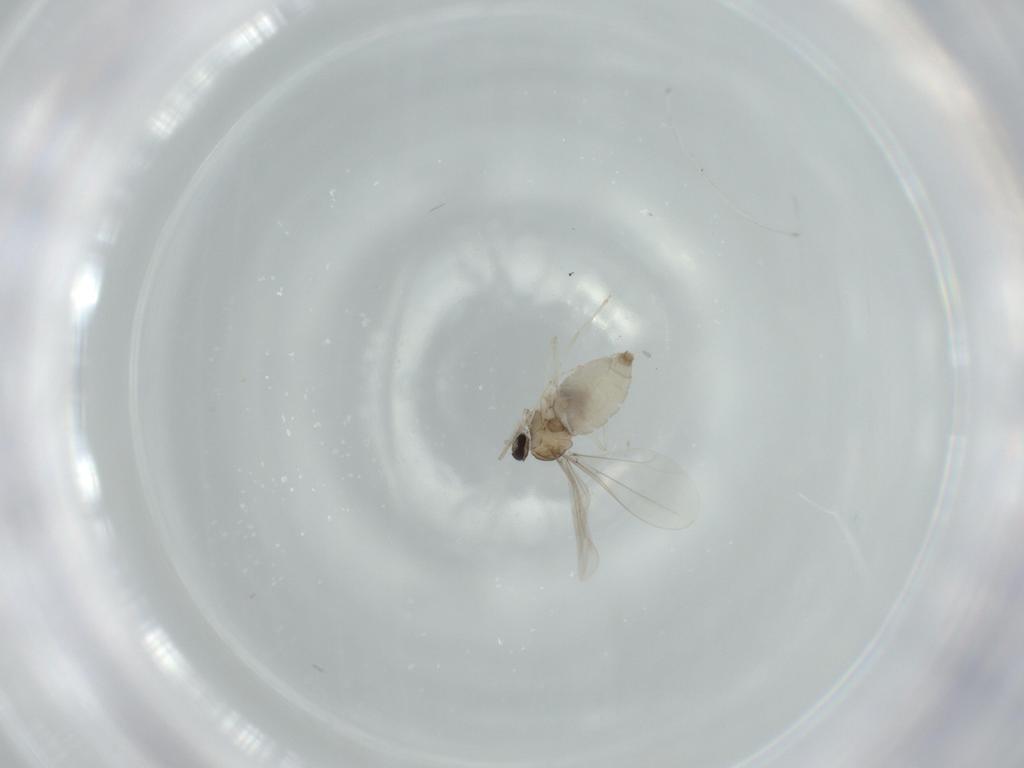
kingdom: Animalia
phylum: Arthropoda
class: Insecta
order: Diptera
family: Cecidomyiidae
